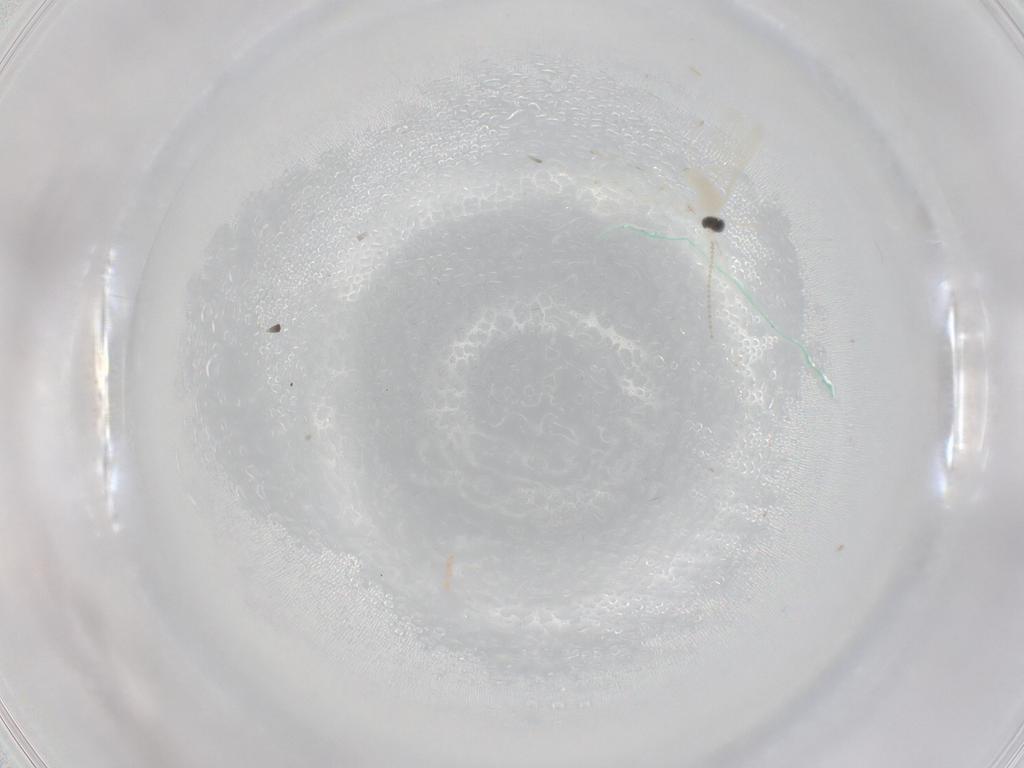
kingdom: Animalia
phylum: Arthropoda
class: Insecta
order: Diptera
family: Cecidomyiidae
